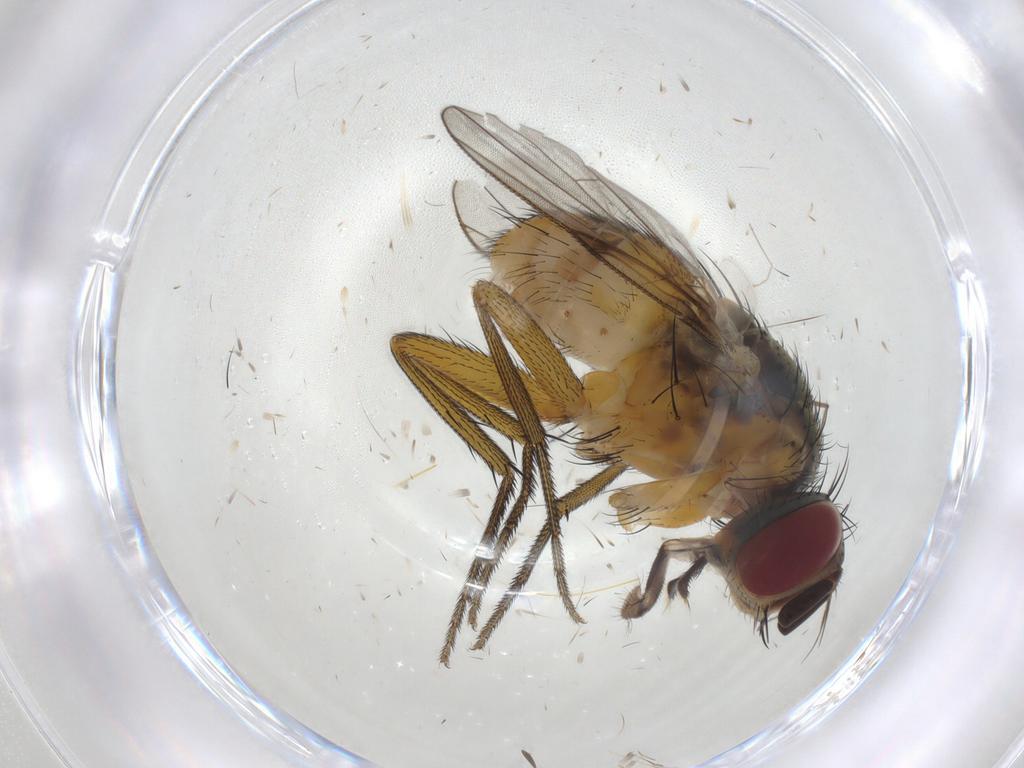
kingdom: Animalia
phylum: Arthropoda
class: Insecta
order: Diptera
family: Muscidae
